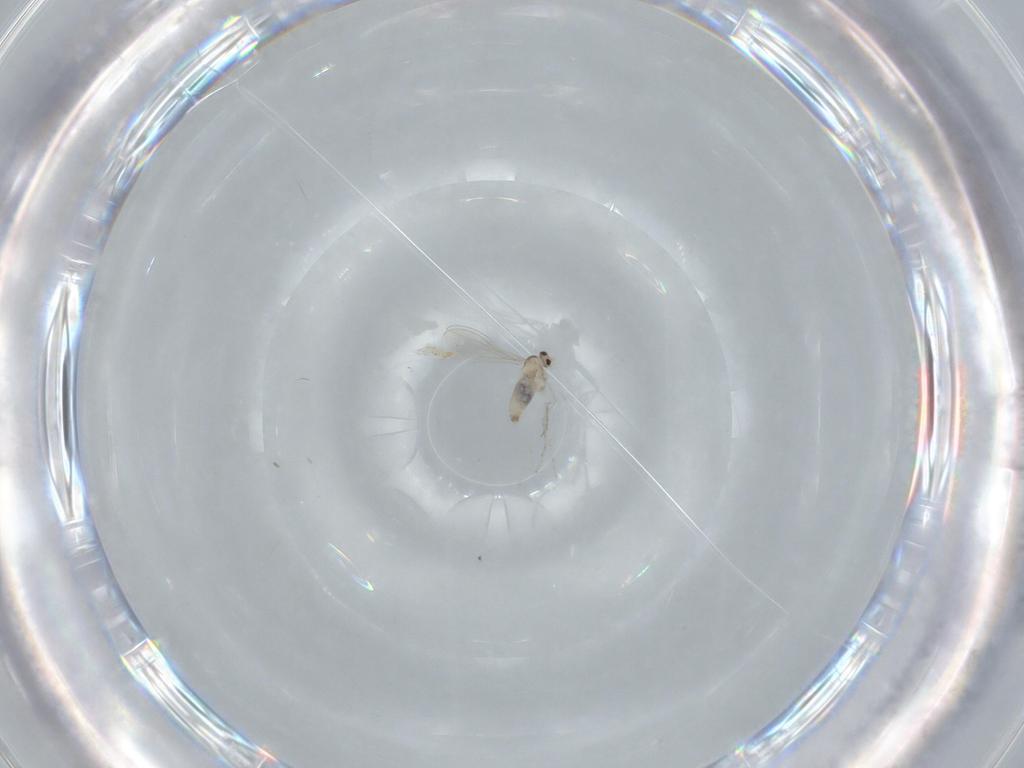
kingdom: Animalia
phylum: Arthropoda
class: Insecta
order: Diptera
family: Cecidomyiidae
